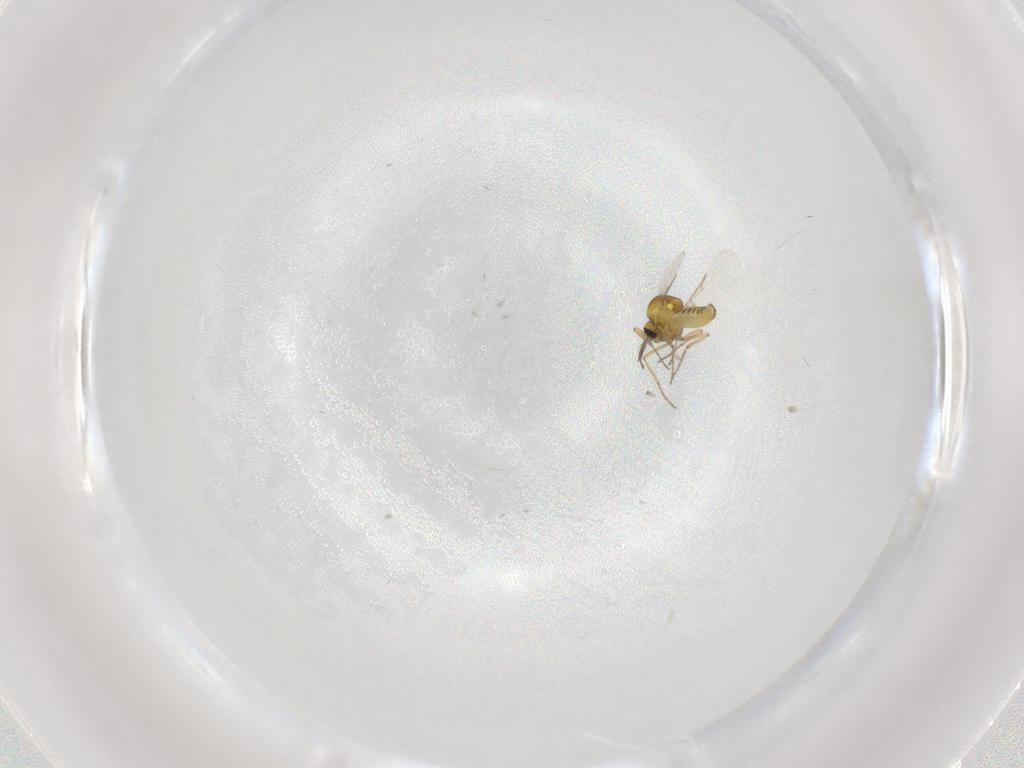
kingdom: Animalia
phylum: Arthropoda
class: Insecta
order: Diptera
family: Ceratopogonidae
